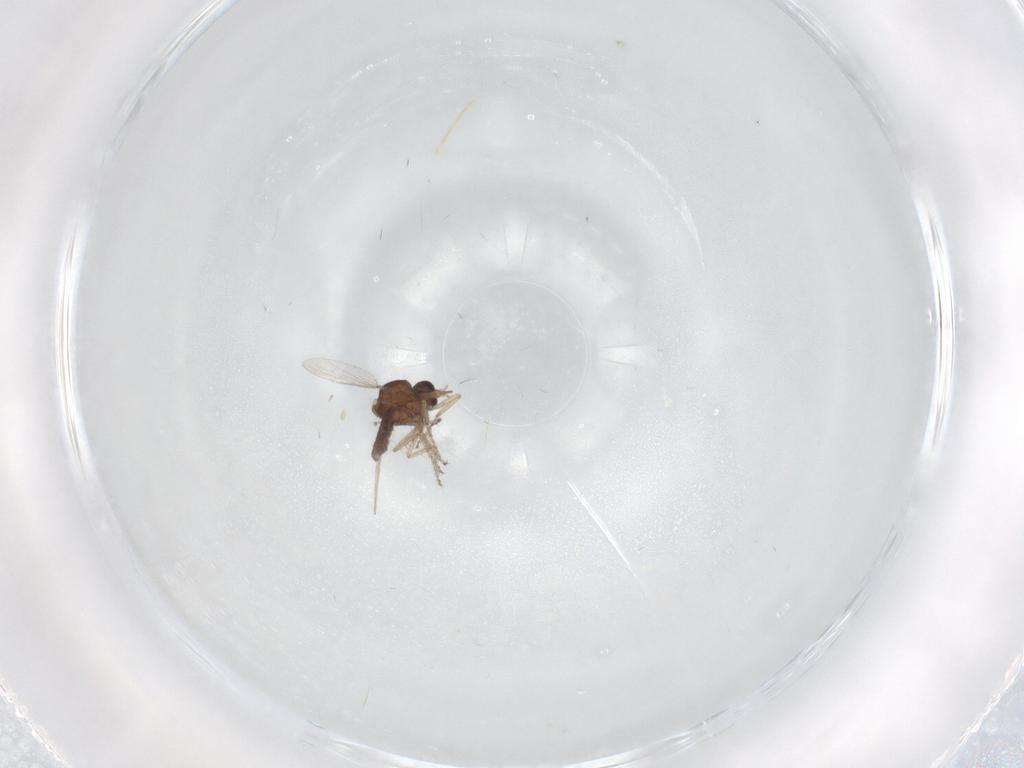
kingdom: Animalia
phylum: Arthropoda
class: Insecta
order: Diptera
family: Ceratopogonidae
